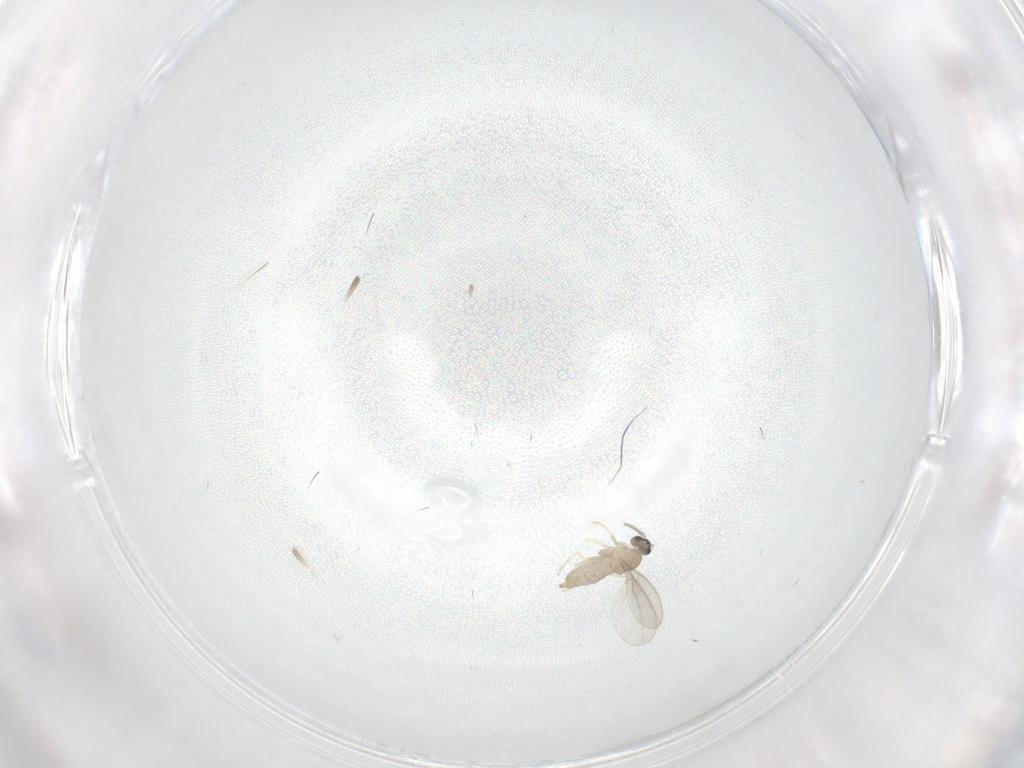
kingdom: Animalia
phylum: Arthropoda
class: Insecta
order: Diptera
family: Cecidomyiidae
